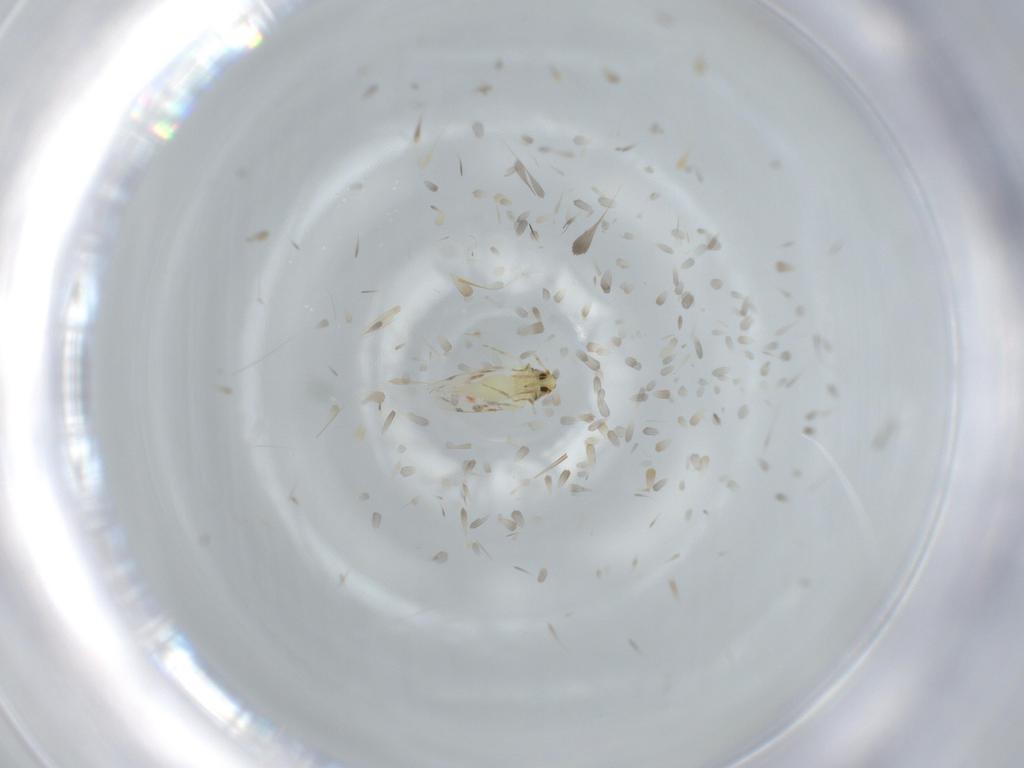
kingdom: Animalia
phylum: Arthropoda
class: Insecta
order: Hemiptera
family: Aleyrodidae
